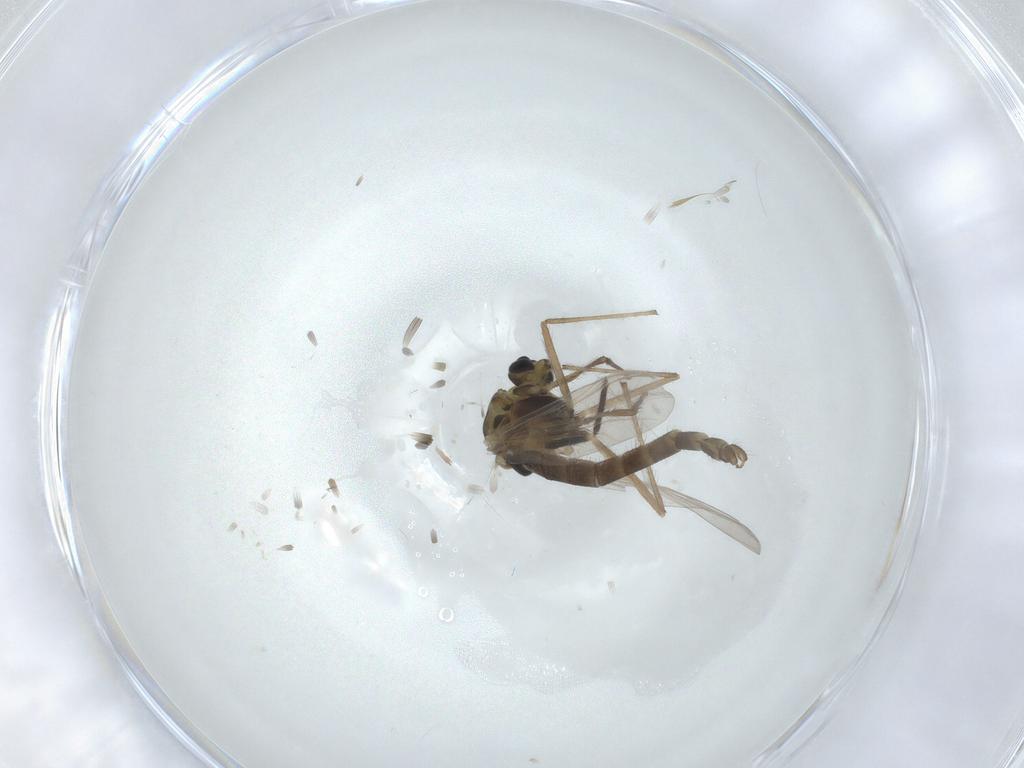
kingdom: Animalia
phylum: Arthropoda
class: Insecta
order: Diptera
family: Chironomidae
